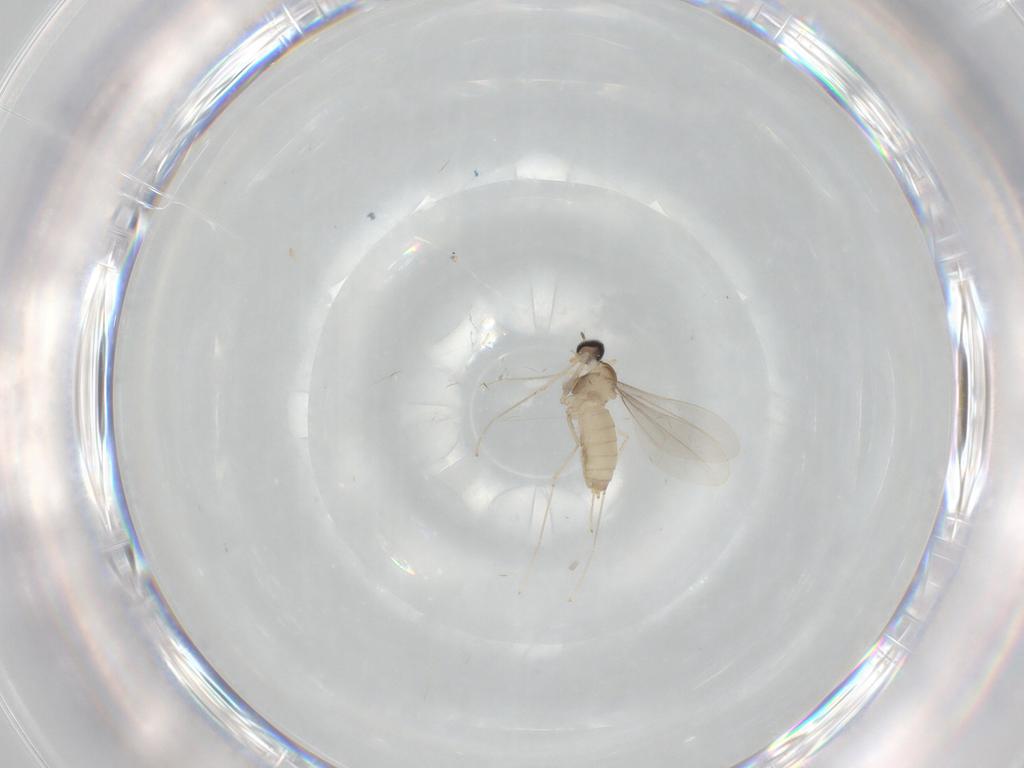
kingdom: Animalia
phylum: Arthropoda
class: Insecta
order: Diptera
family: Cecidomyiidae
